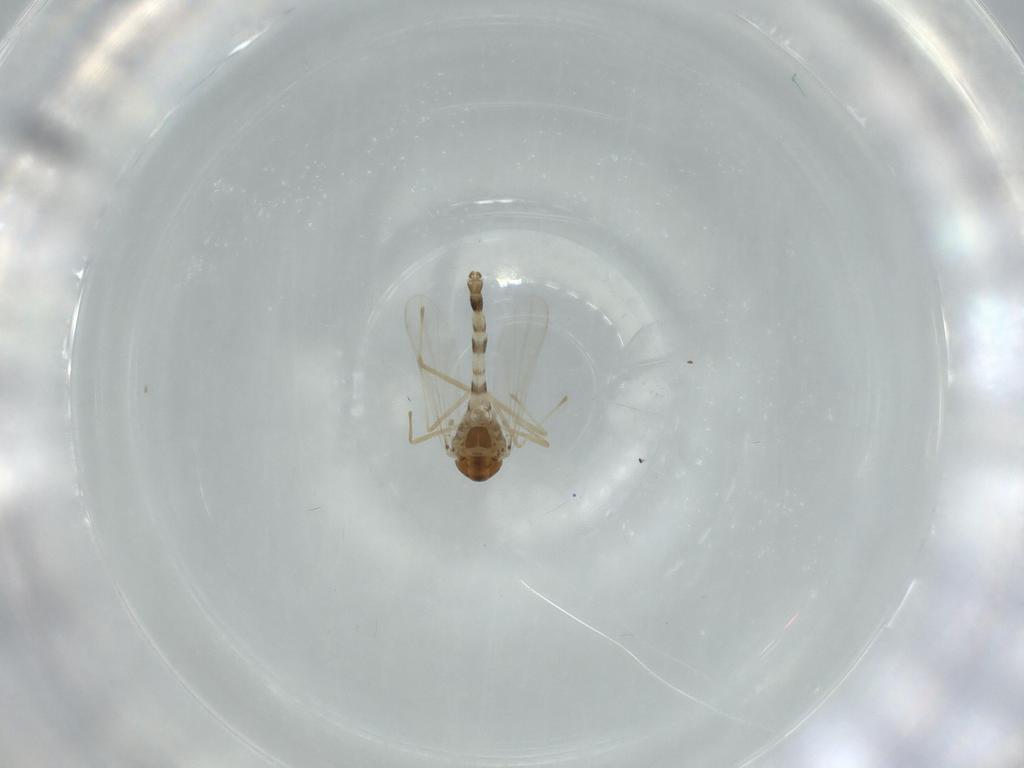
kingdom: Animalia
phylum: Arthropoda
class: Insecta
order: Diptera
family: Chironomidae
